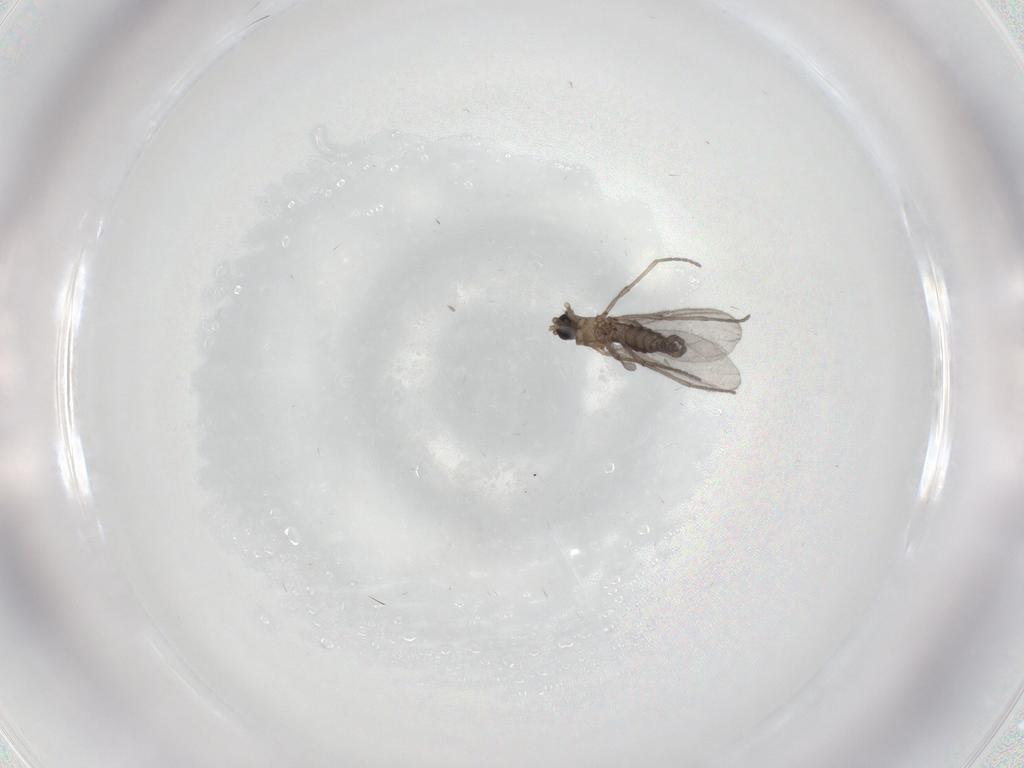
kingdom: Animalia
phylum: Arthropoda
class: Insecta
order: Diptera
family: Sciaridae
